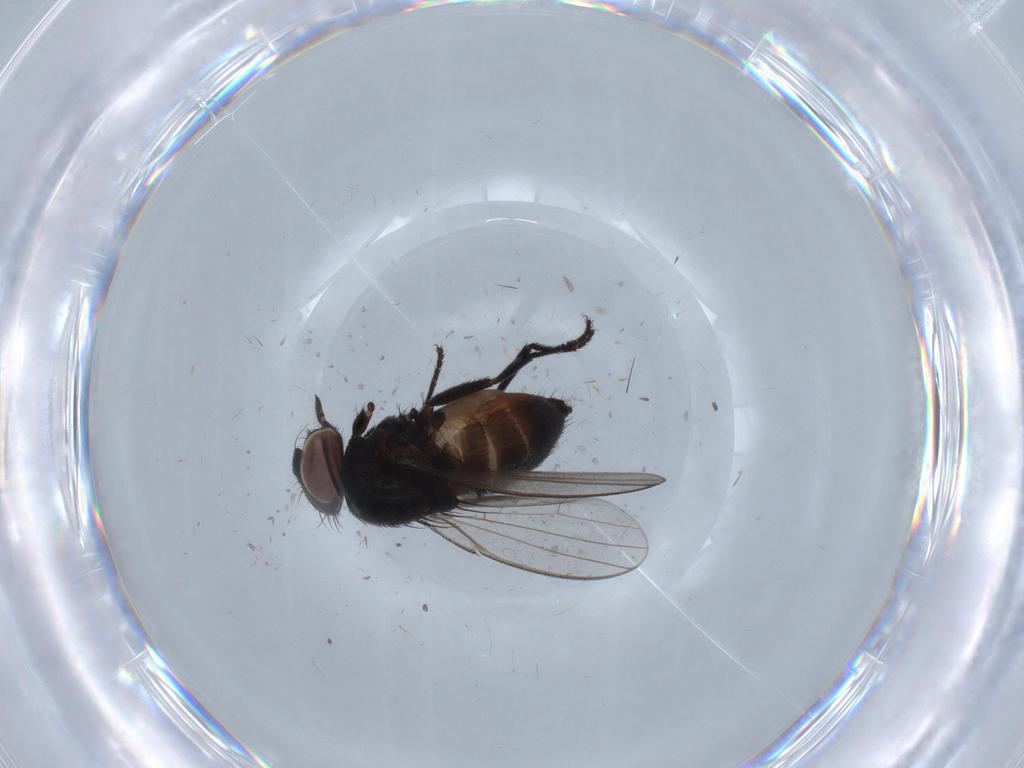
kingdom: Animalia
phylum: Arthropoda
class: Insecta
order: Diptera
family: Milichiidae
